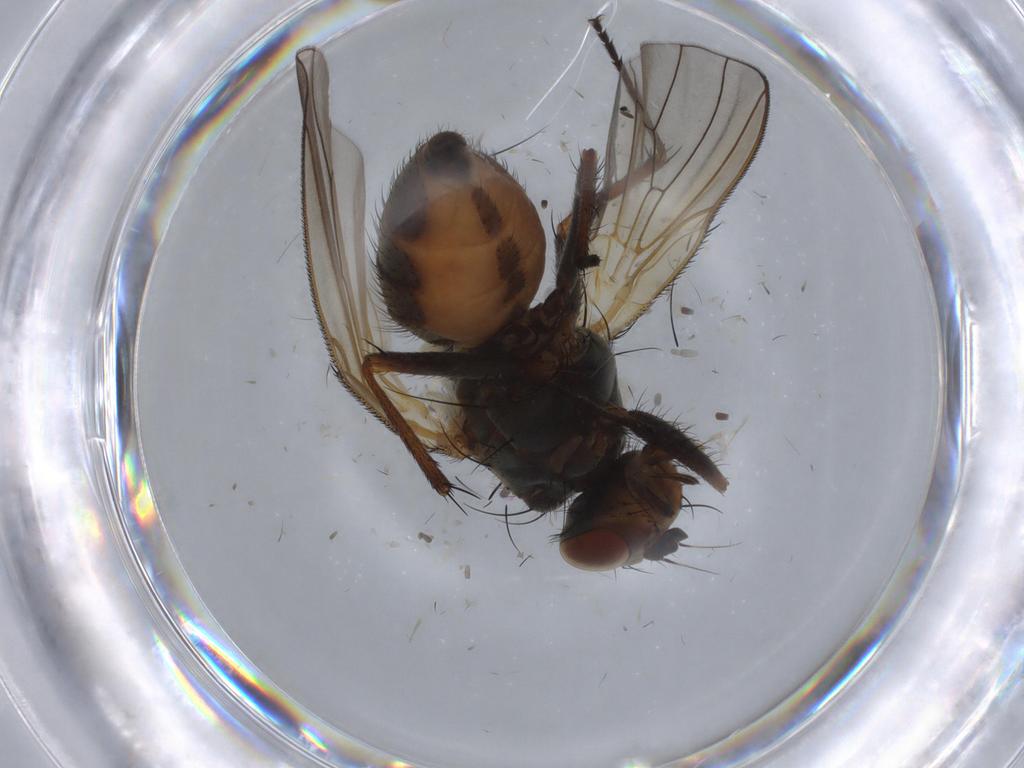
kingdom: Animalia
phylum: Arthropoda
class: Insecta
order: Diptera
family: Anthomyiidae
